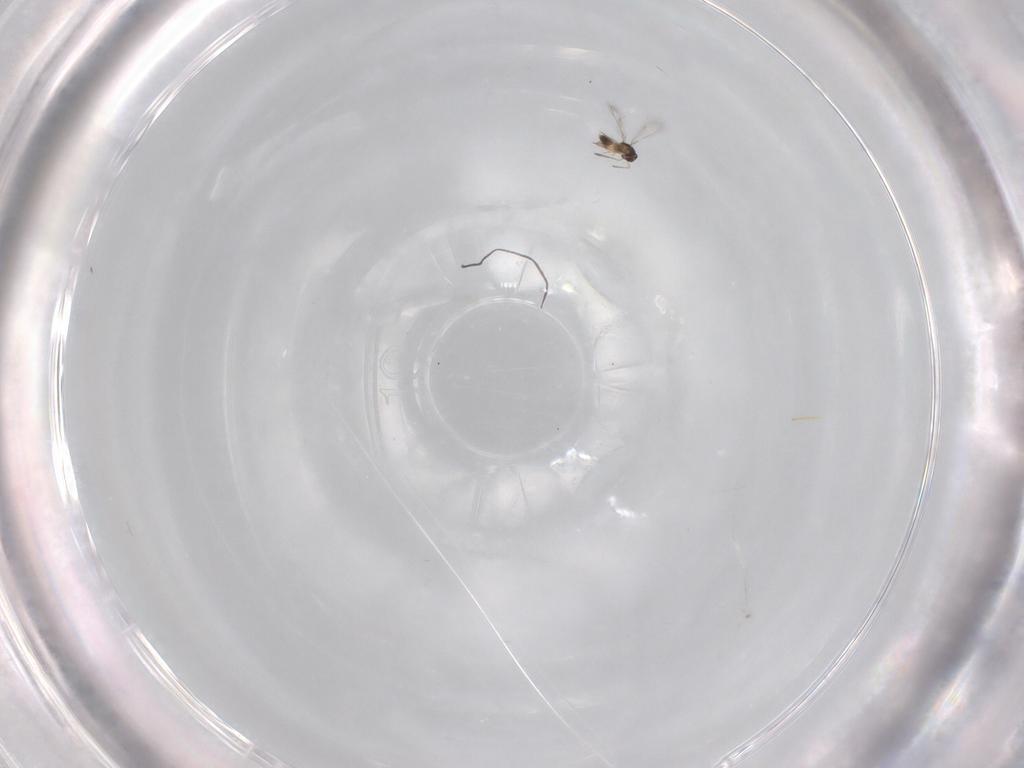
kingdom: Animalia
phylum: Arthropoda
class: Insecta
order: Hymenoptera
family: Mymaridae
